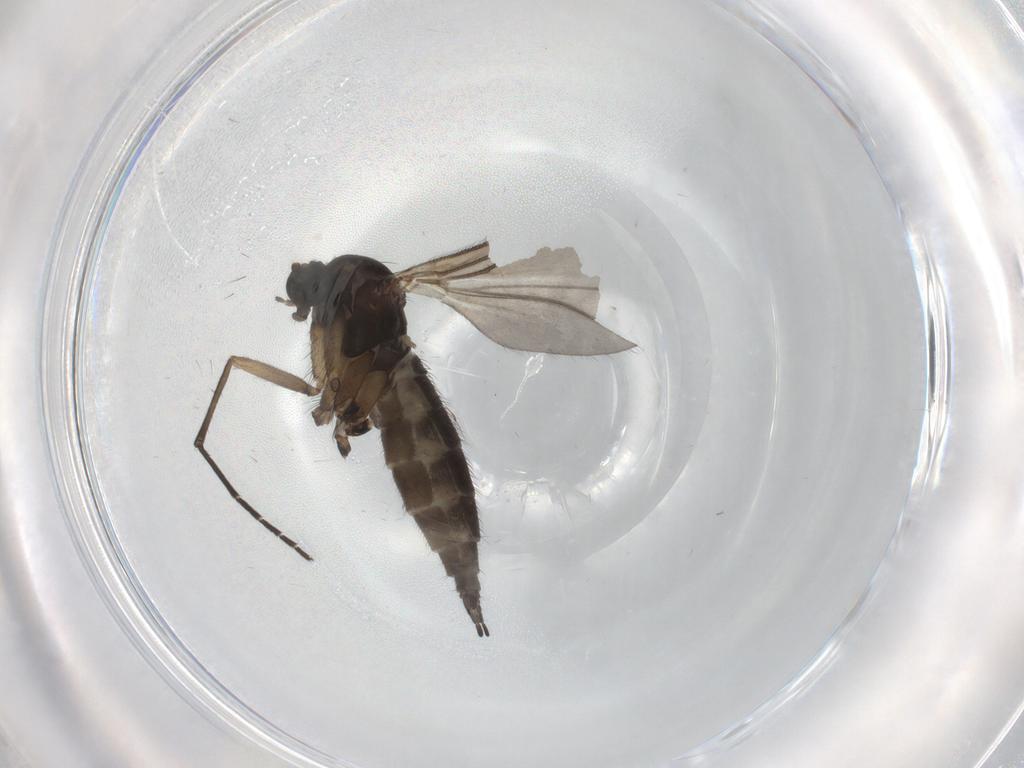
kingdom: Animalia
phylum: Arthropoda
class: Insecta
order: Diptera
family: Sciaridae
